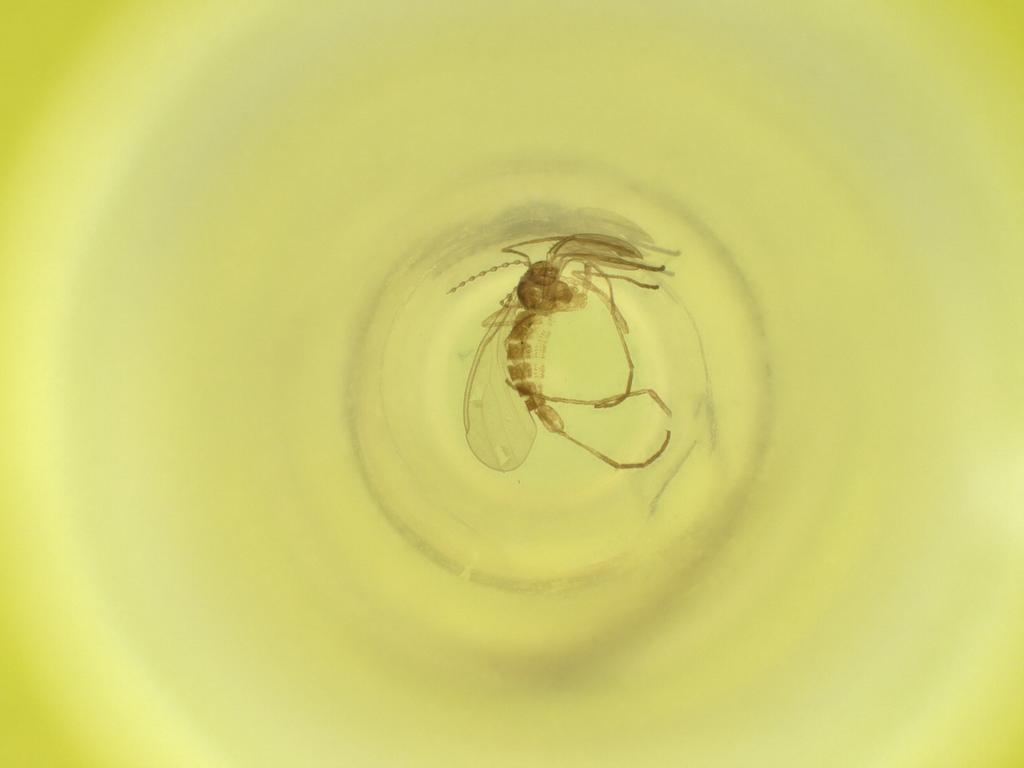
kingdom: Animalia
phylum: Arthropoda
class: Insecta
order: Diptera
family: Cecidomyiidae
